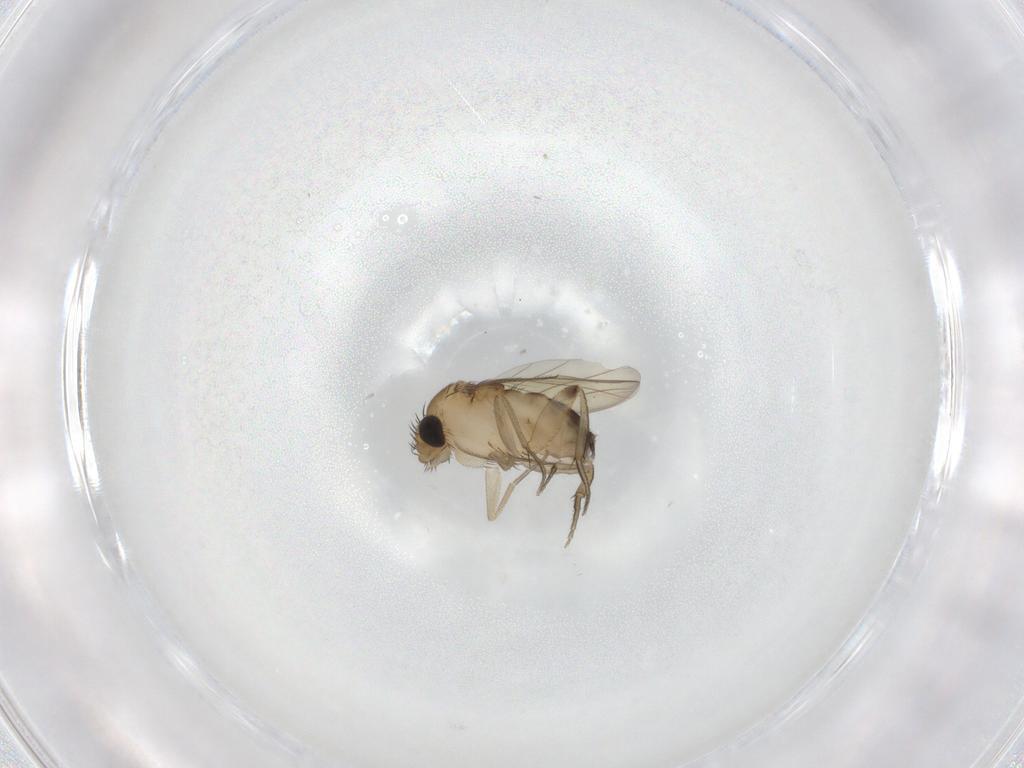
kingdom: Animalia
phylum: Arthropoda
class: Insecta
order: Diptera
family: Phoridae
